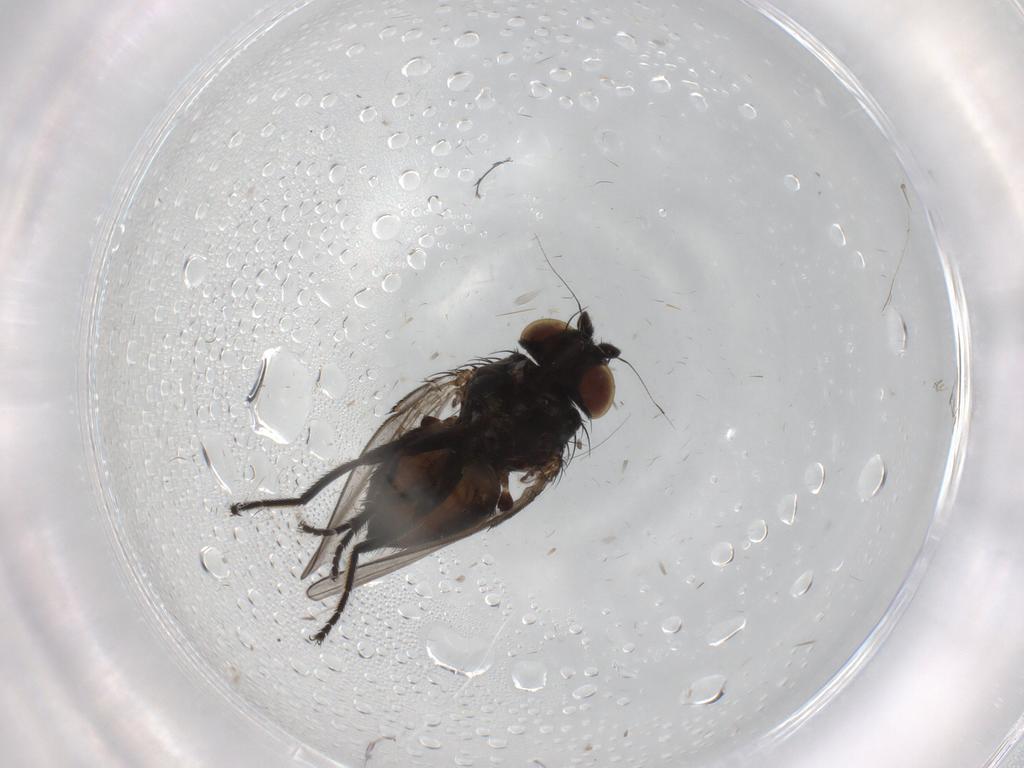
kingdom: Animalia
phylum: Arthropoda
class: Insecta
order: Diptera
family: Milichiidae
